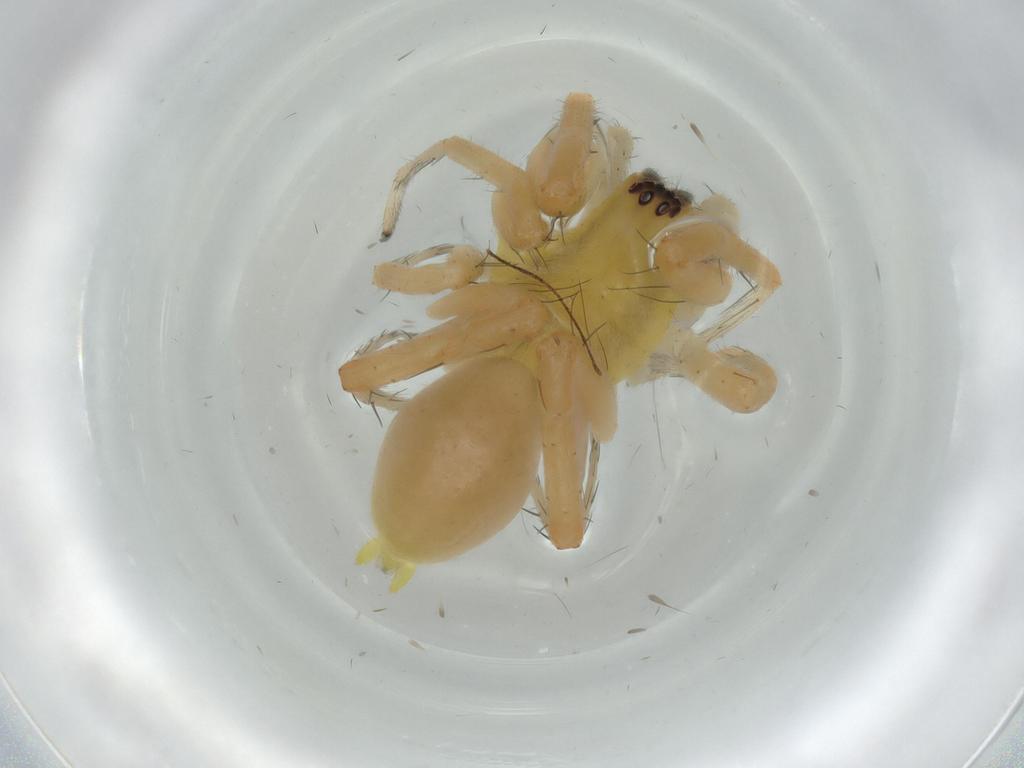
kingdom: Animalia
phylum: Arthropoda
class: Arachnida
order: Araneae
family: Anyphaenidae
